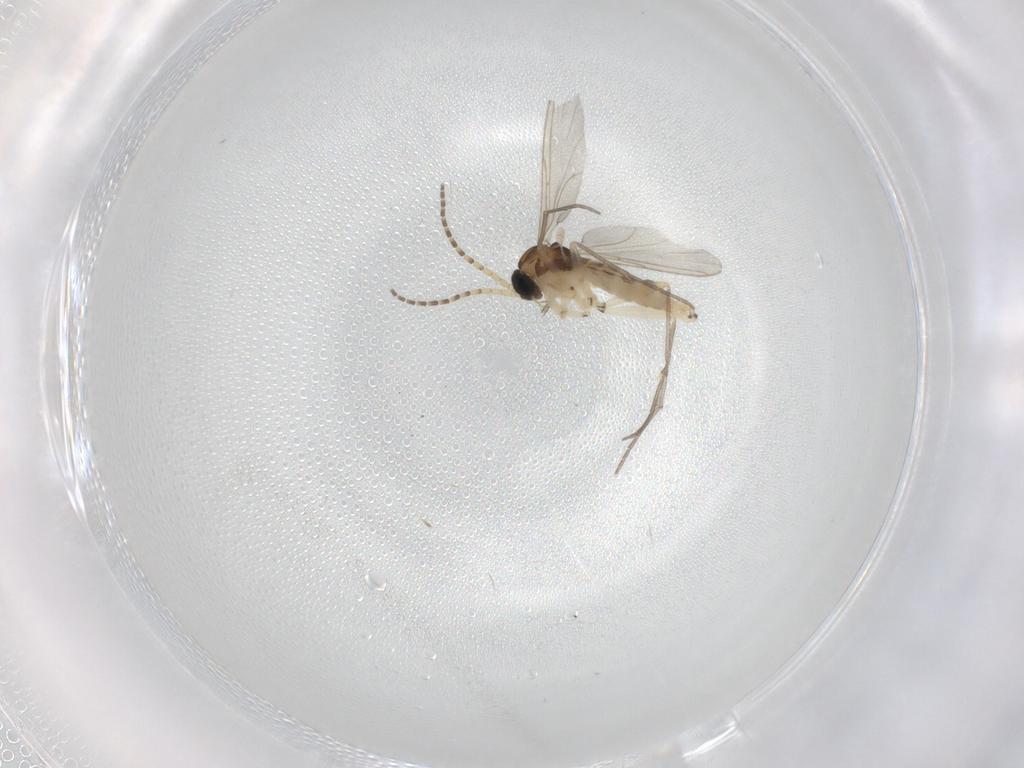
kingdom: Animalia
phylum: Arthropoda
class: Insecta
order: Diptera
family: Sciaridae
